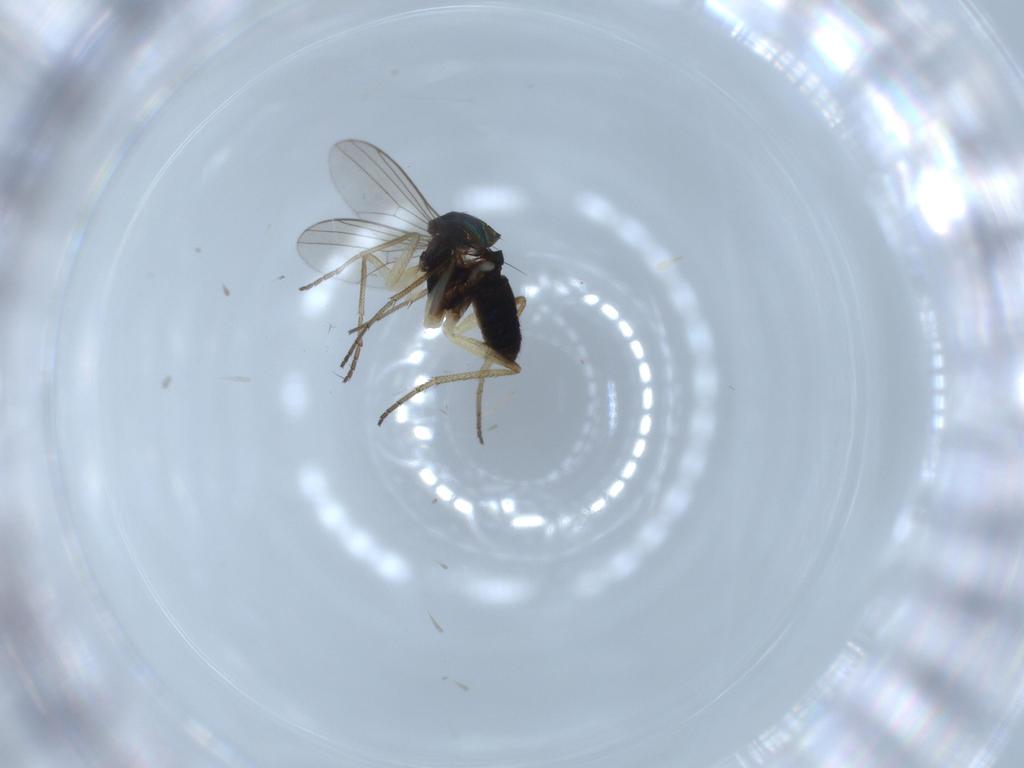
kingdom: Animalia
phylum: Arthropoda
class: Insecta
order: Diptera
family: Dolichopodidae
